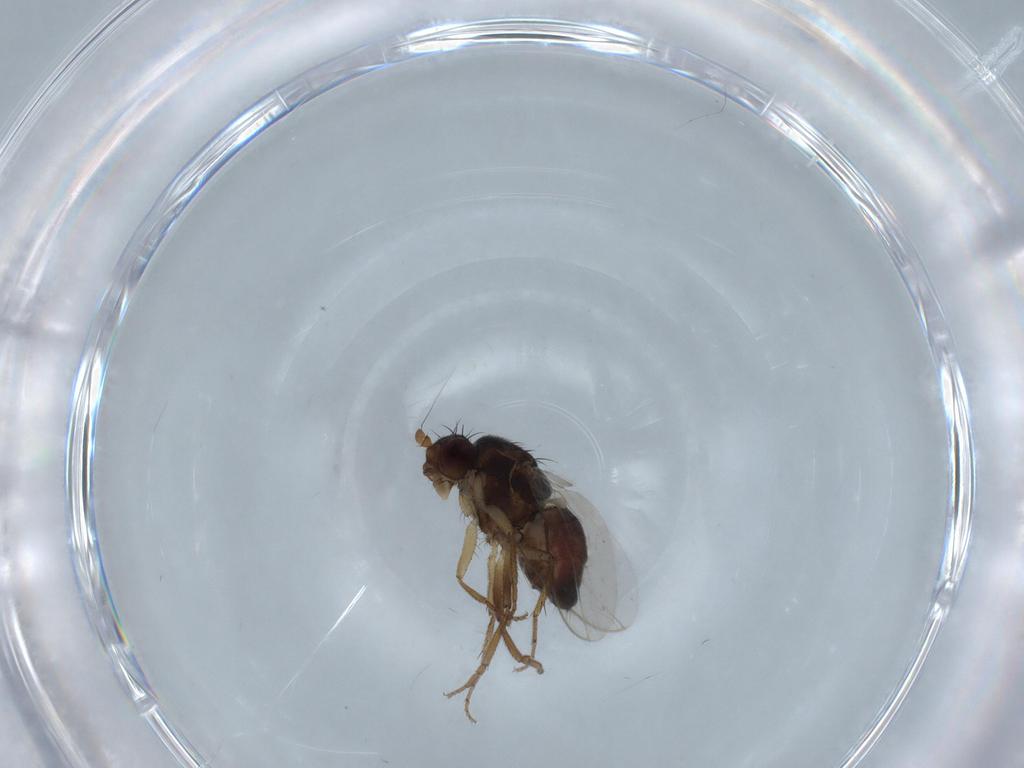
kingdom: Animalia
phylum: Arthropoda
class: Insecta
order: Diptera
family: Ceratopogonidae
